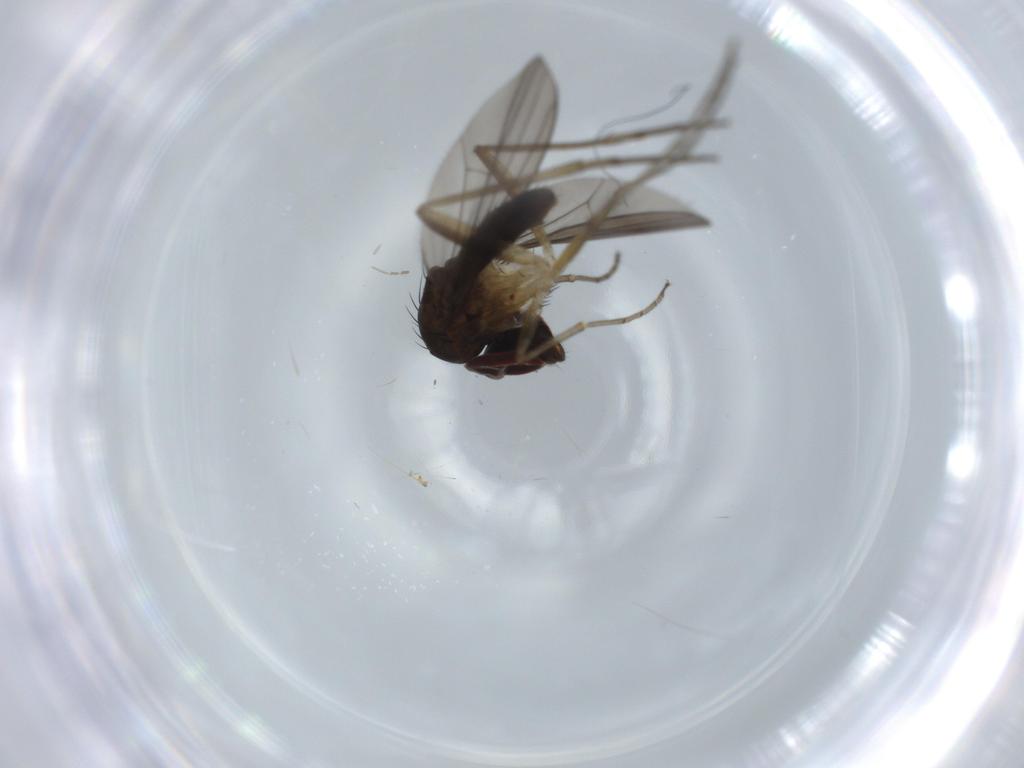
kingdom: Animalia
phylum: Arthropoda
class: Insecta
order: Diptera
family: Dolichopodidae
